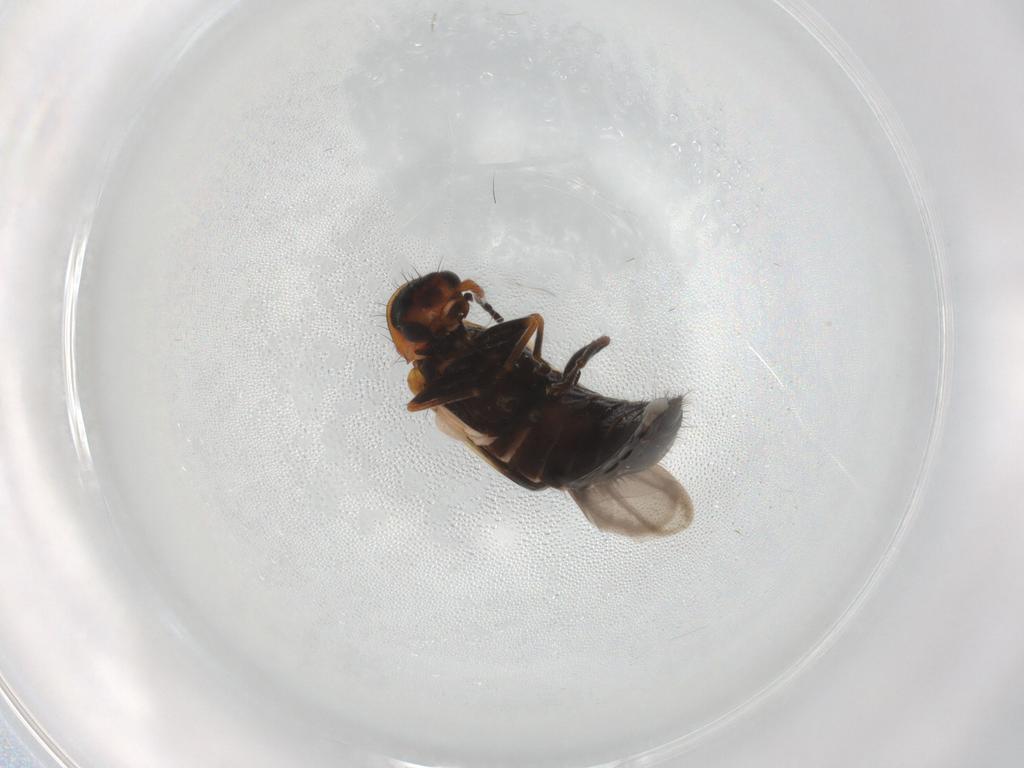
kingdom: Animalia
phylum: Arthropoda
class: Insecta
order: Coleoptera
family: Melyridae
